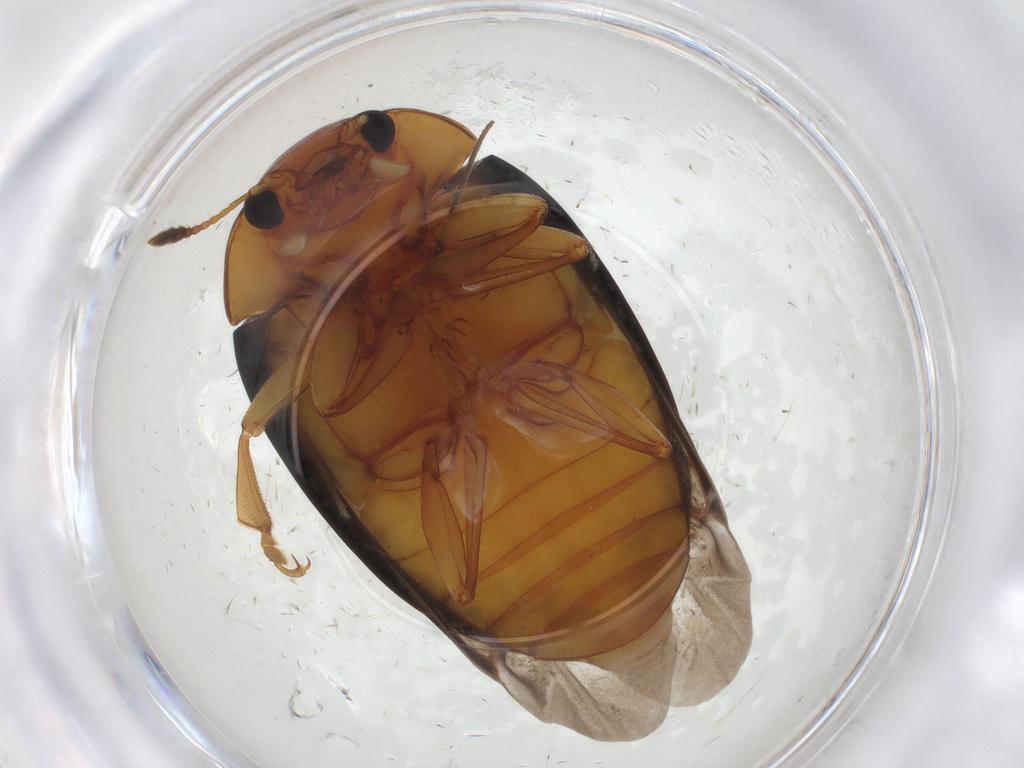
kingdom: Animalia
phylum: Arthropoda
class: Insecta
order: Coleoptera
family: Erotylidae
